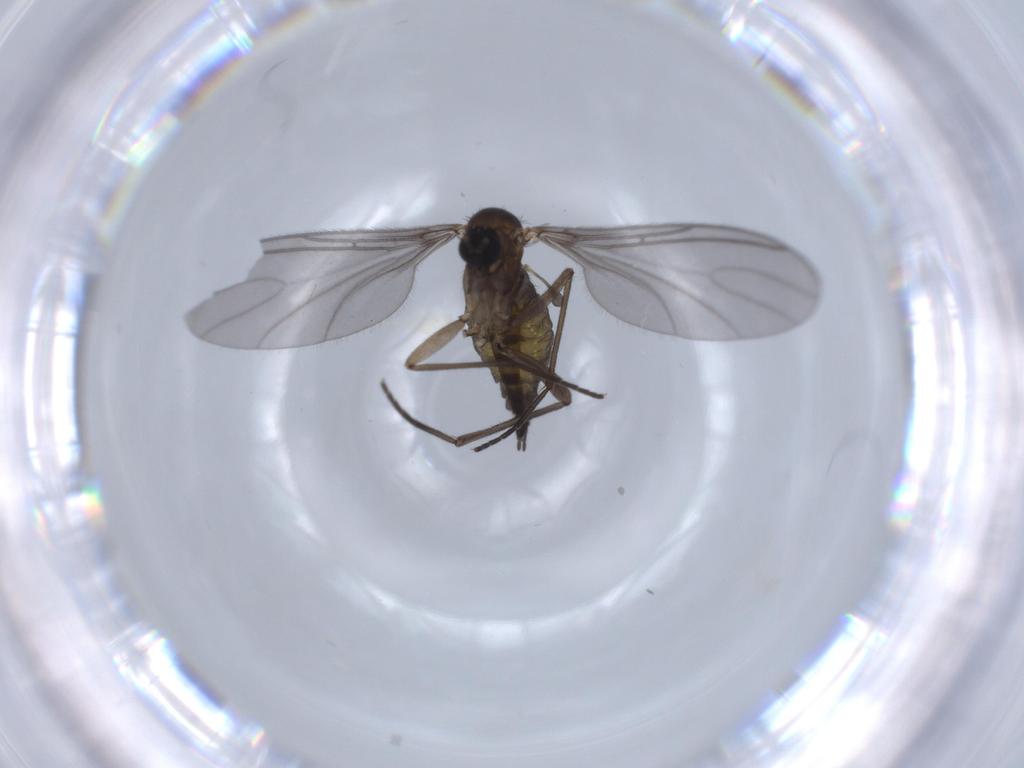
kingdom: Animalia
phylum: Arthropoda
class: Insecta
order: Diptera
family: Sciaridae
